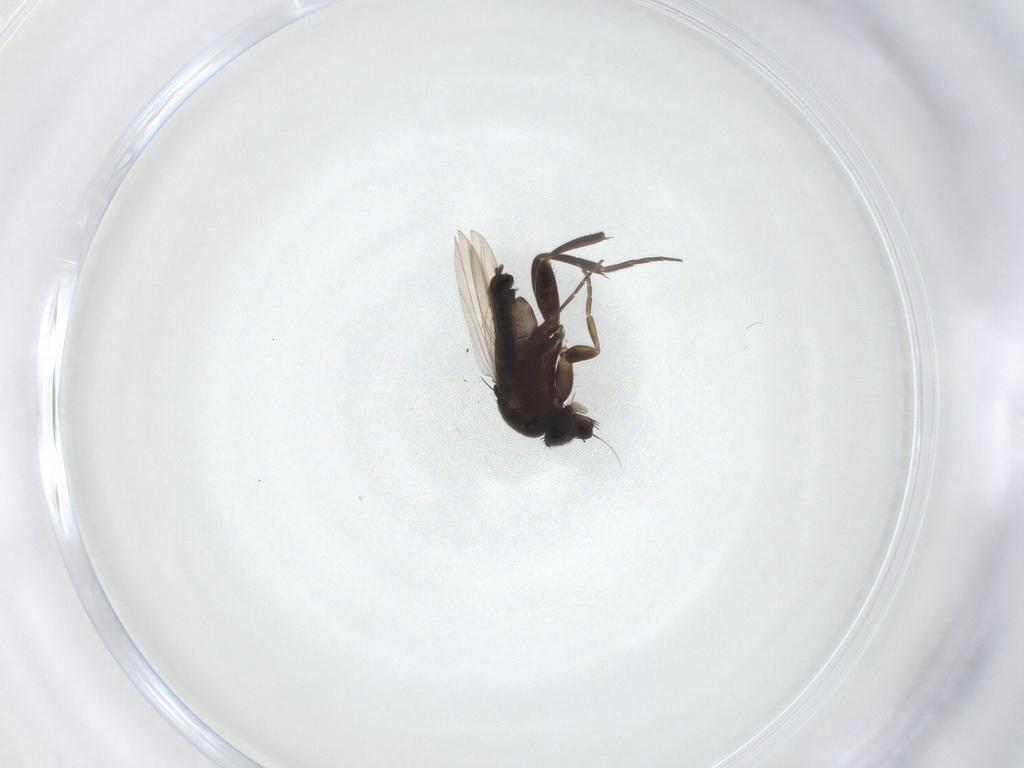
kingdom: Animalia
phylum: Arthropoda
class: Insecta
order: Diptera
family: Phoridae
